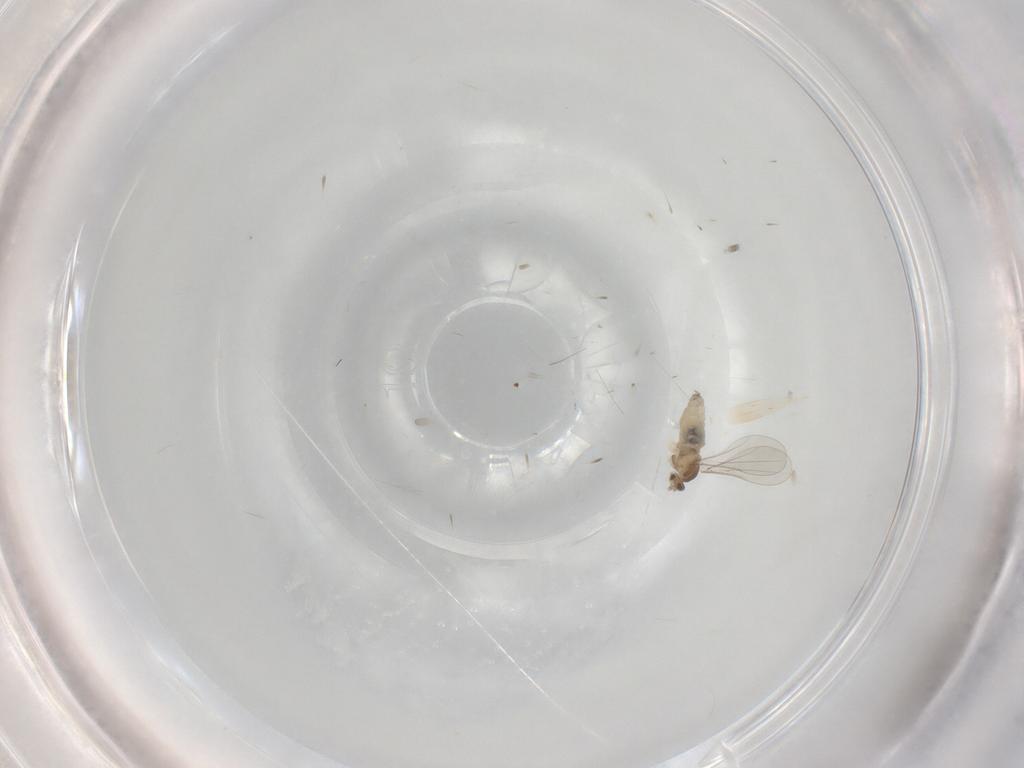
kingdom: Animalia
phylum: Arthropoda
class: Insecta
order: Diptera
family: Cecidomyiidae
